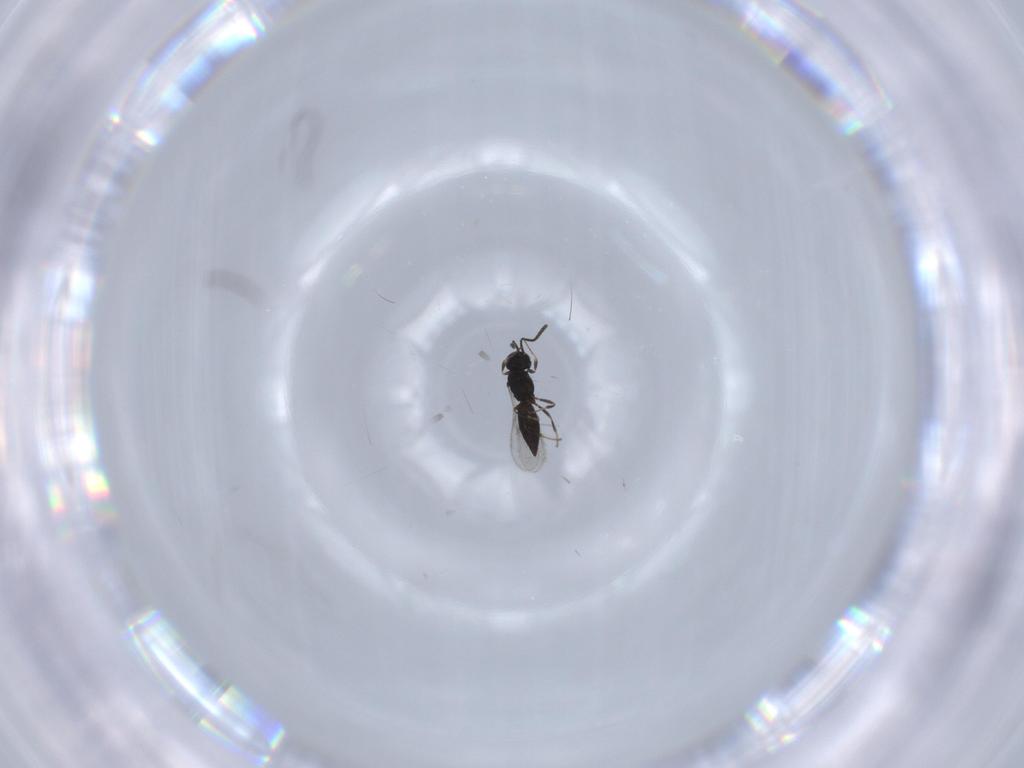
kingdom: Animalia
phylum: Arthropoda
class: Insecta
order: Hymenoptera
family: Scelionidae
